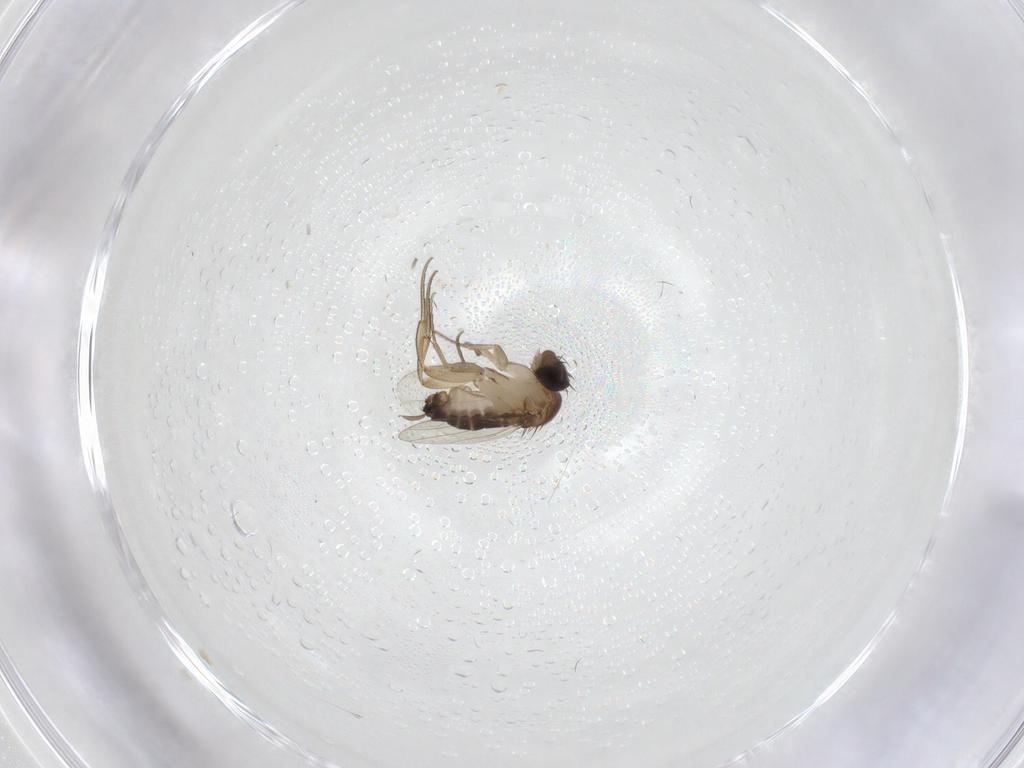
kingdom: Animalia
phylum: Arthropoda
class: Insecta
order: Diptera
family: Phoridae
